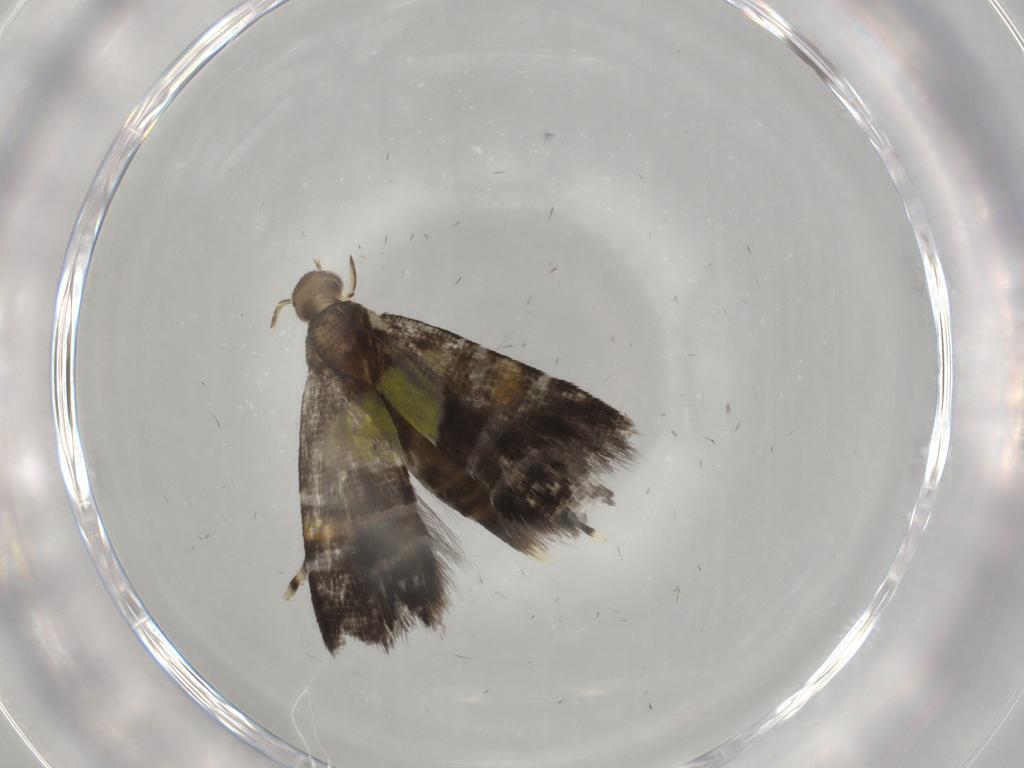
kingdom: Animalia
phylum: Arthropoda
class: Insecta
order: Lepidoptera
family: Glyphipterigidae
